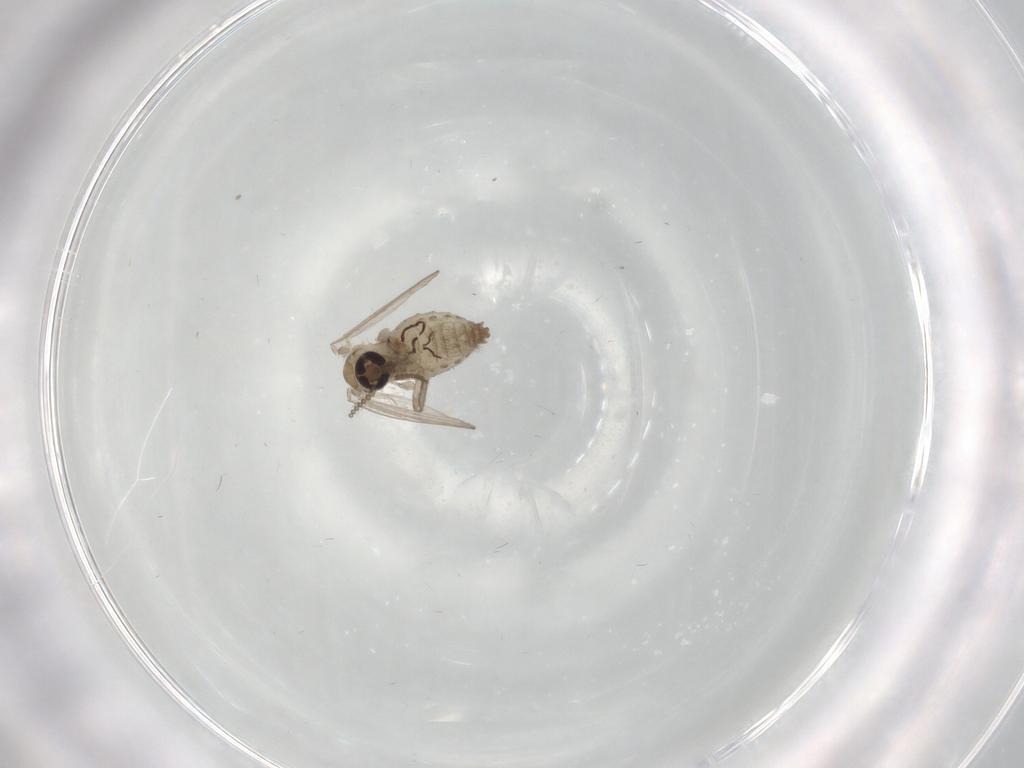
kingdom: Animalia
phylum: Arthropoda
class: Insecta
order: Diptera
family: Psychodidae
